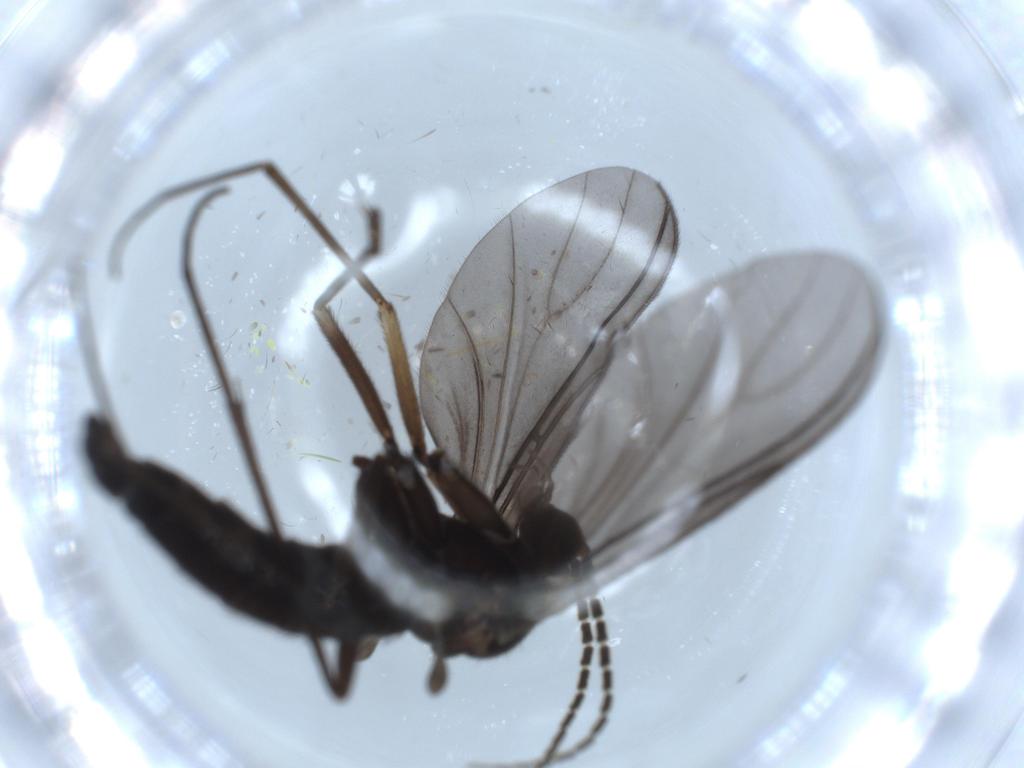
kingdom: Animalia
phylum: Arthropoda
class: Insecta
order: Diptera
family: Sciaridae
